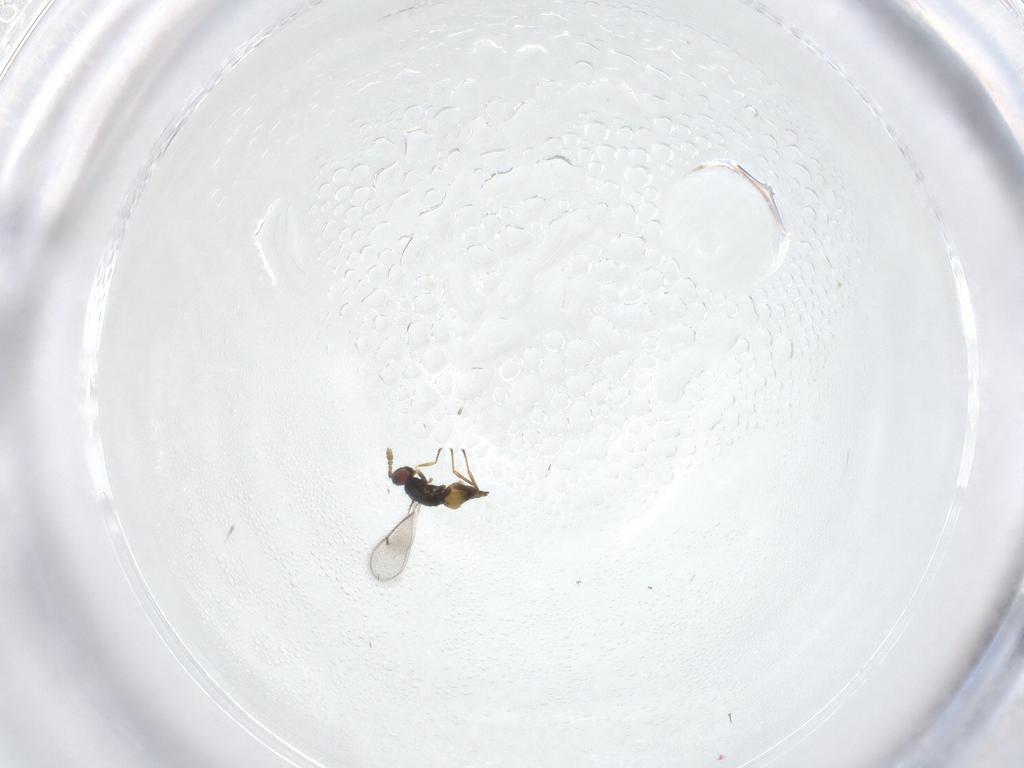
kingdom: Animalia
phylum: Arthropoda
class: Insecta
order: Hymenoptera
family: Eulophidae
